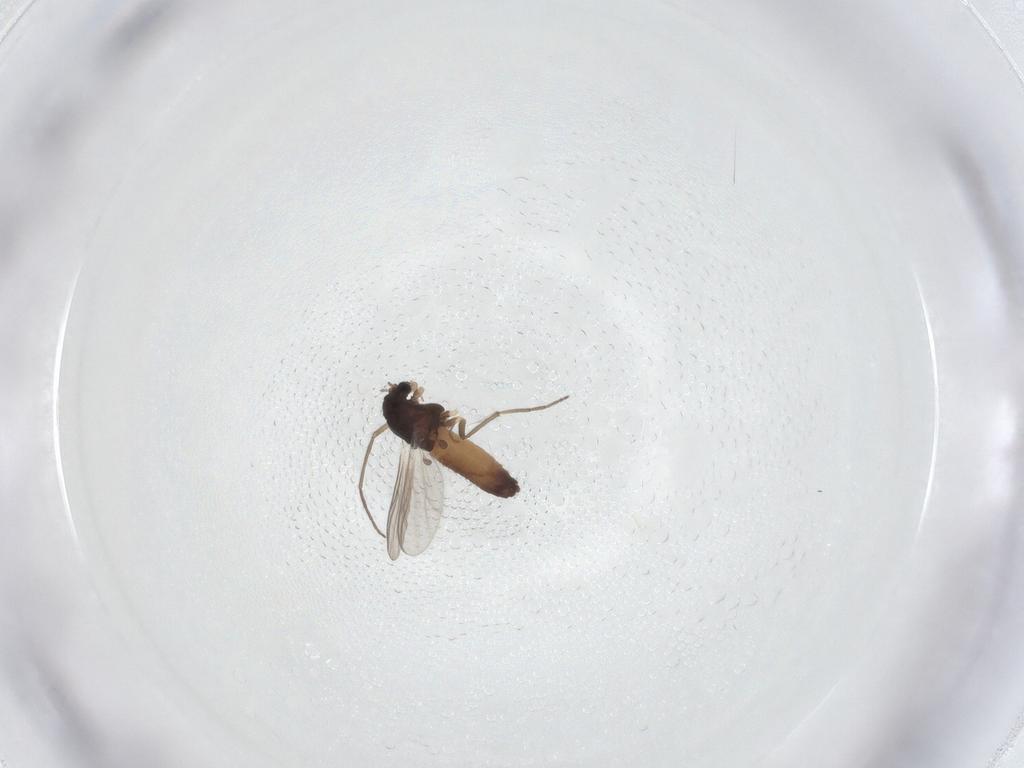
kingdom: Animalia
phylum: Arthropoda
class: Insecta
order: Diptera
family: Chironomidae
